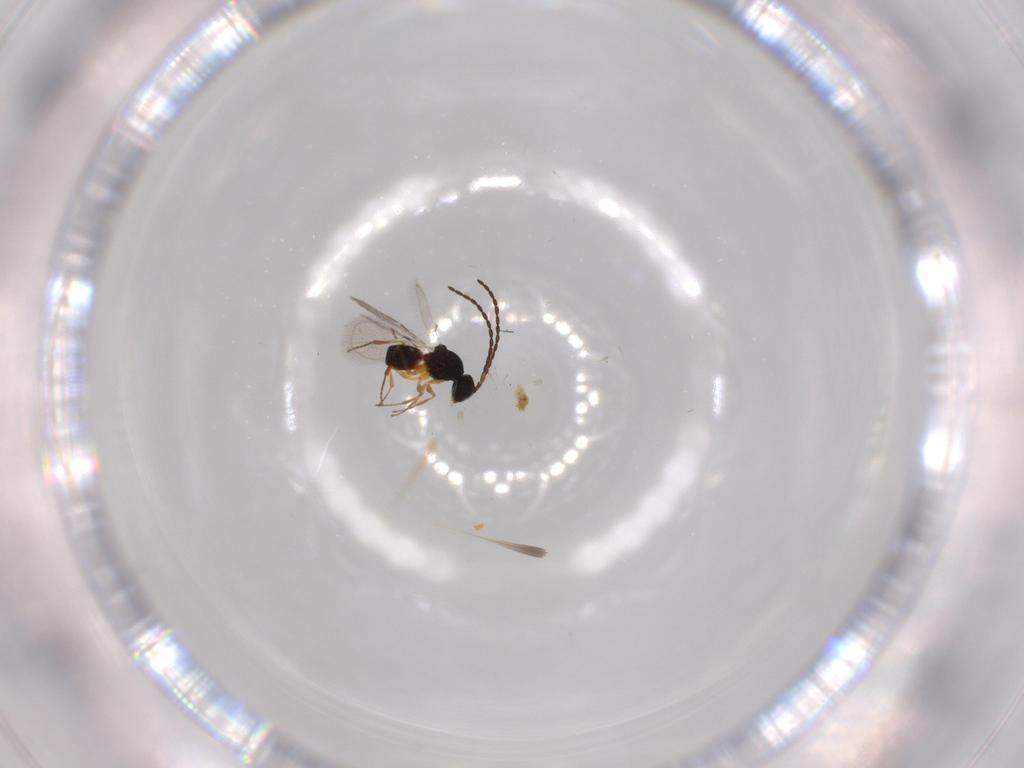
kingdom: Animalia
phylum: Arthropoda
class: Insecta
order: Hymenoptera
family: Figitidae
